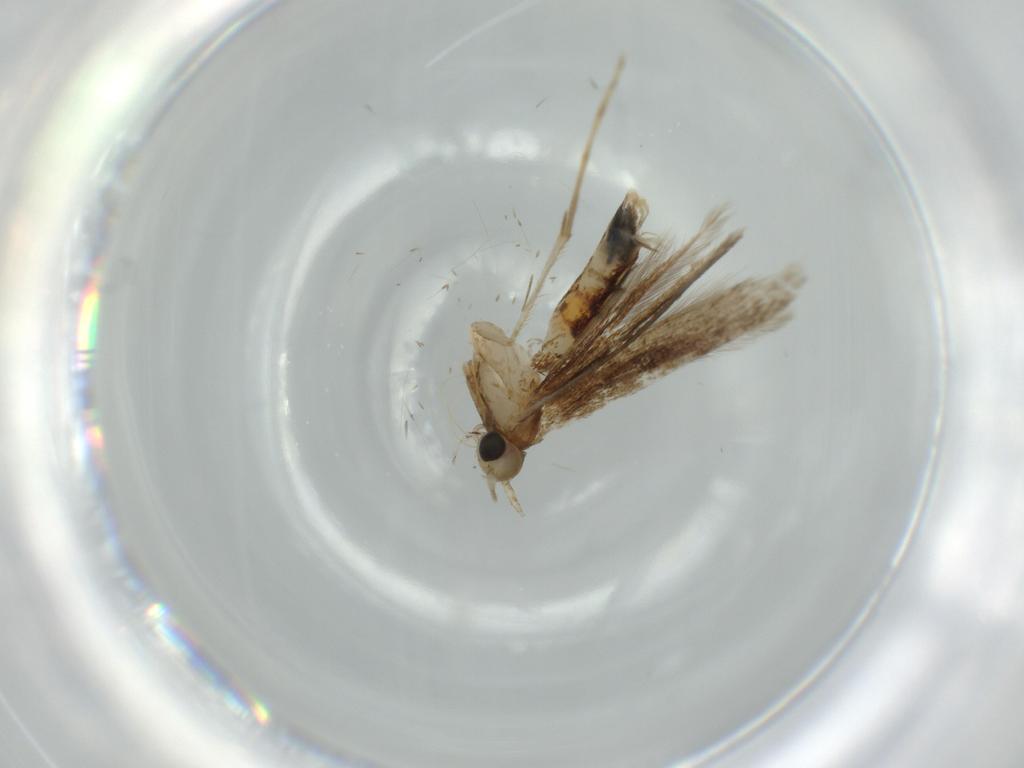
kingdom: Animalia
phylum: Arthropoda
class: Insecta
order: Lepidoptera
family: Gracillariidae
